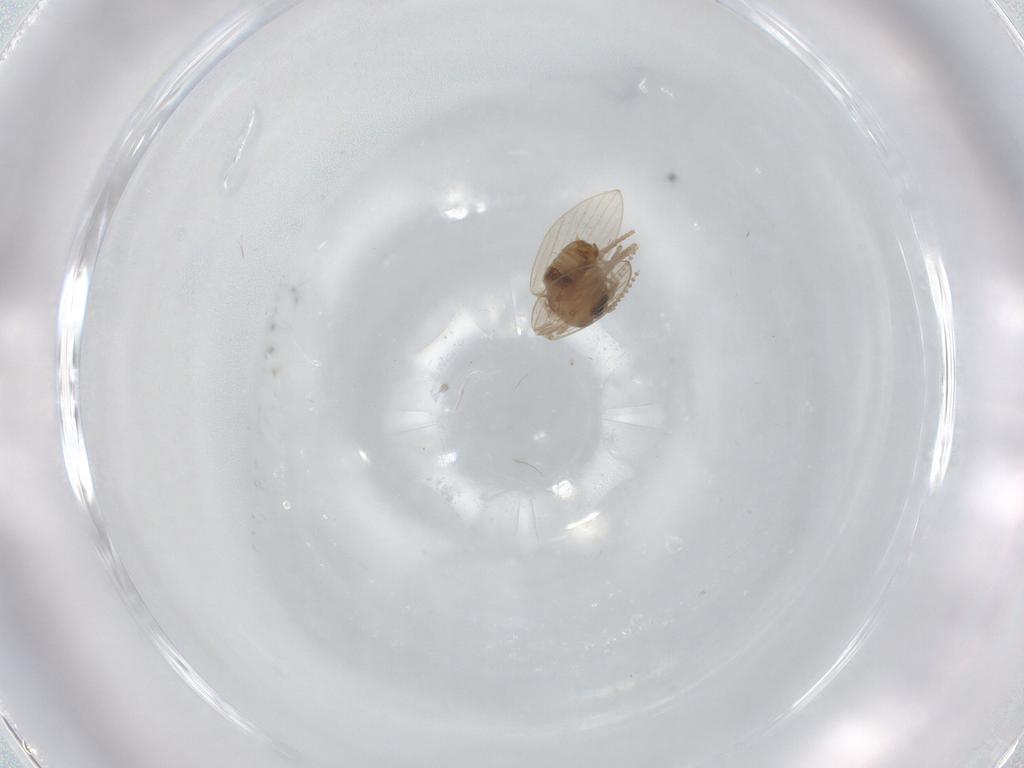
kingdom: Animalia
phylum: Arthropoda
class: Insecta
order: Diptera
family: Psychodidae
